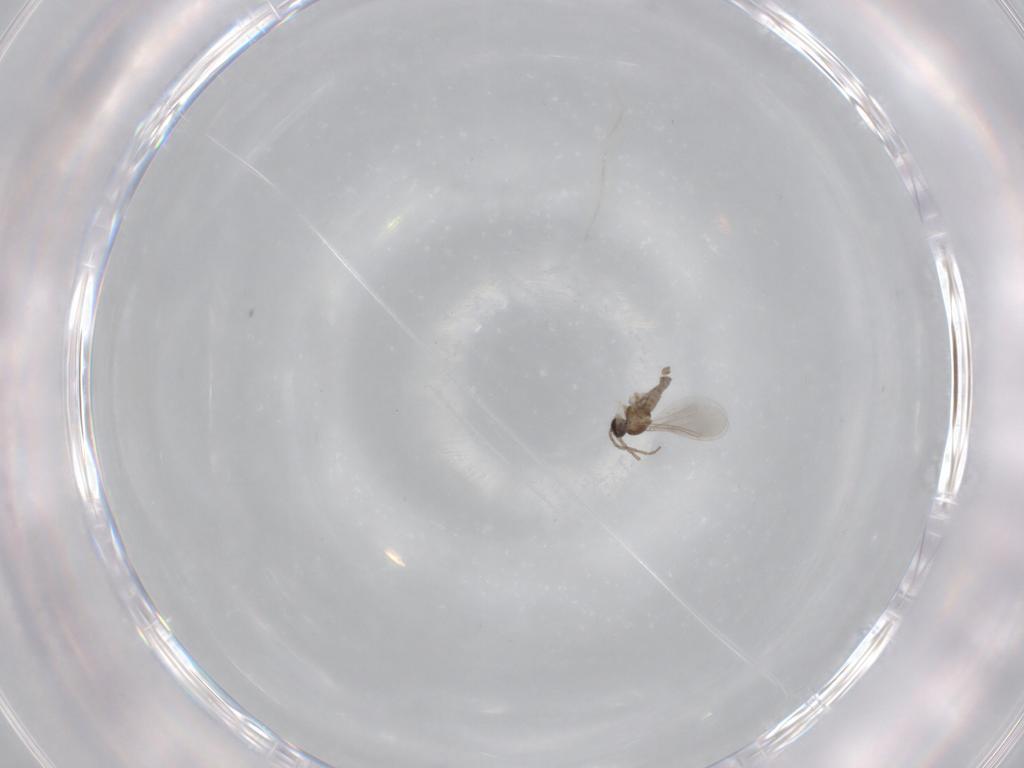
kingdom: Animalia
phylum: Arthropoda
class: Insecta
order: Diptera
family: Cecidomyiidae
